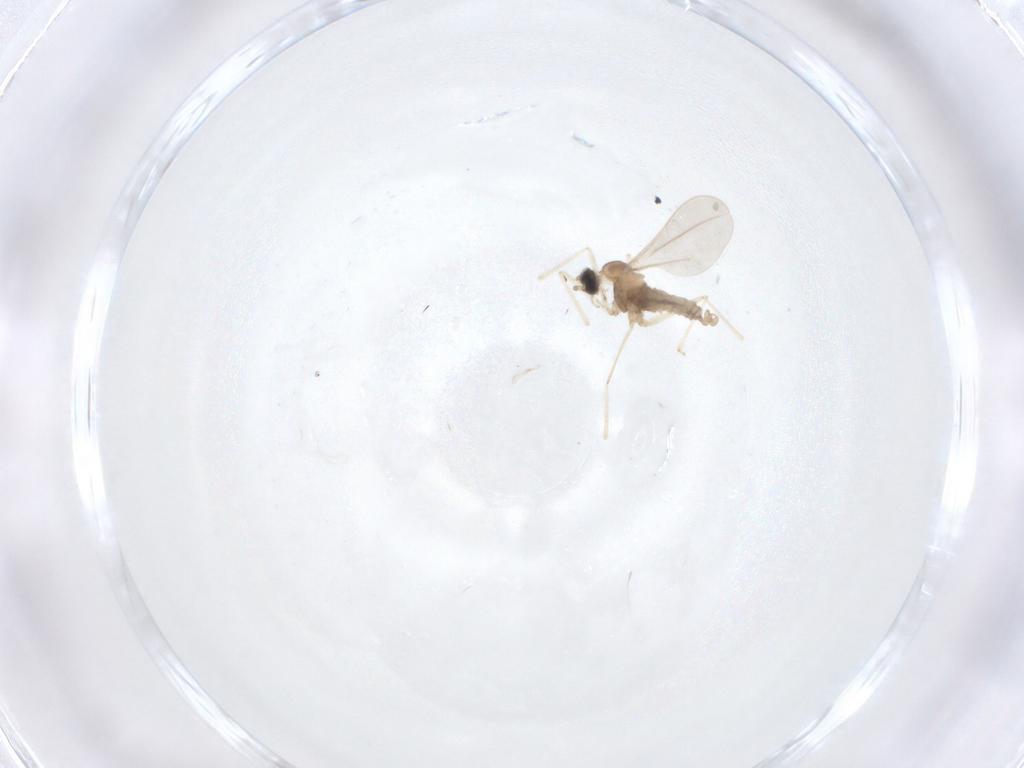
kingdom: Animalia
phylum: Arthropoda
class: Insecta
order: Diptera
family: Cecidomyiidae
